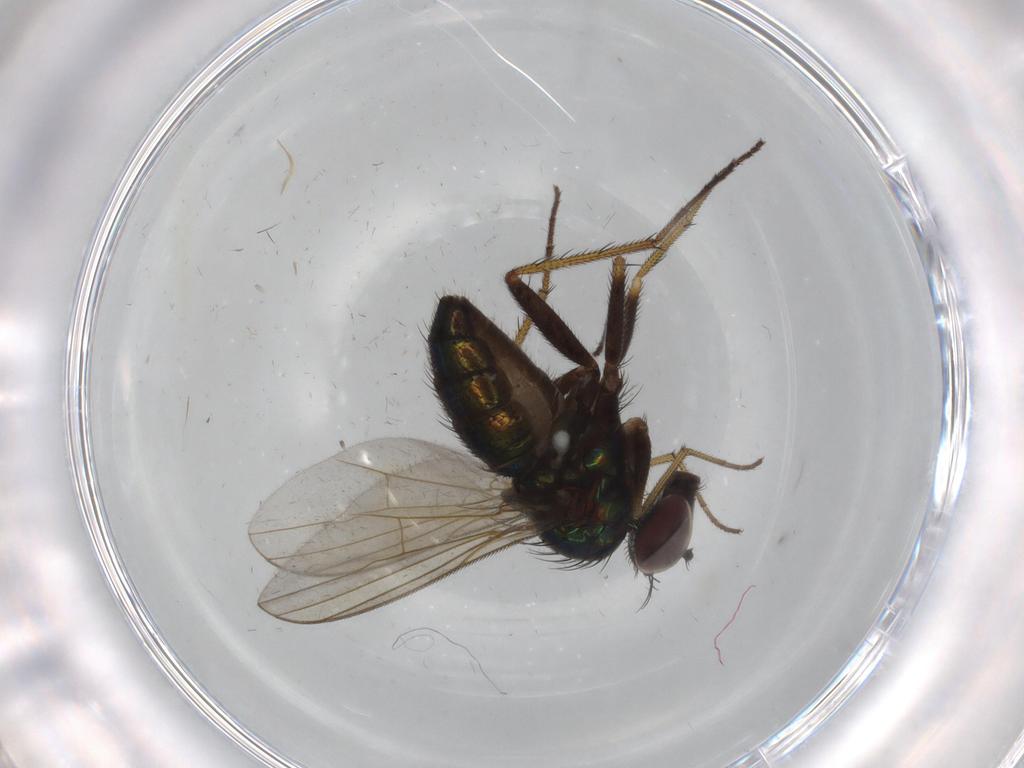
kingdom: Animalia
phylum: Arthropoda
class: Insecta
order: Diptera
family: Dolichopodidae
